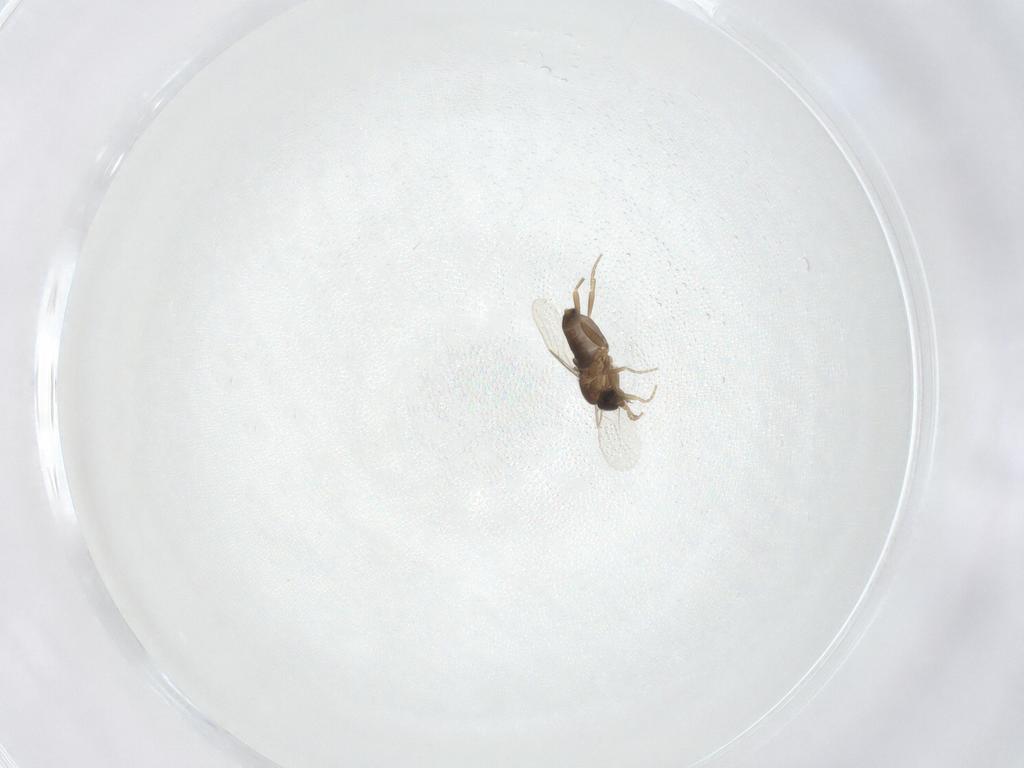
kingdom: Animalia
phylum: Arthropoda
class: Insecta
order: Diptera
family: Phoridae
